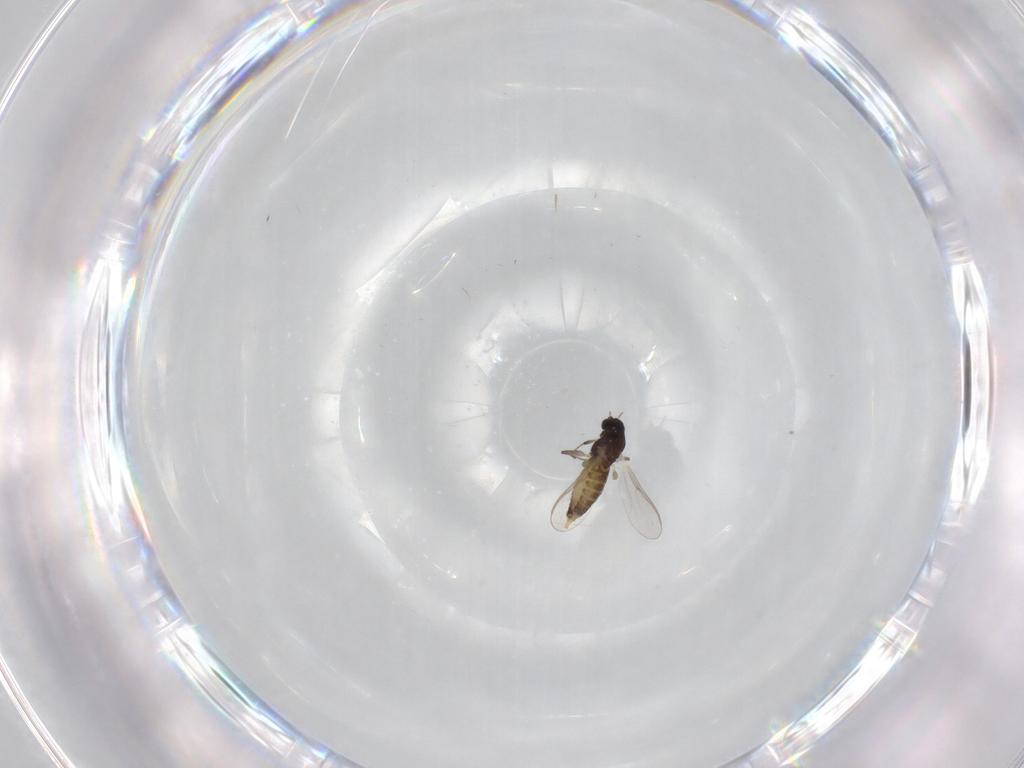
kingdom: Animalia
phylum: Arthropoda
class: Insecta
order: Diptera
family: Chironomidae
